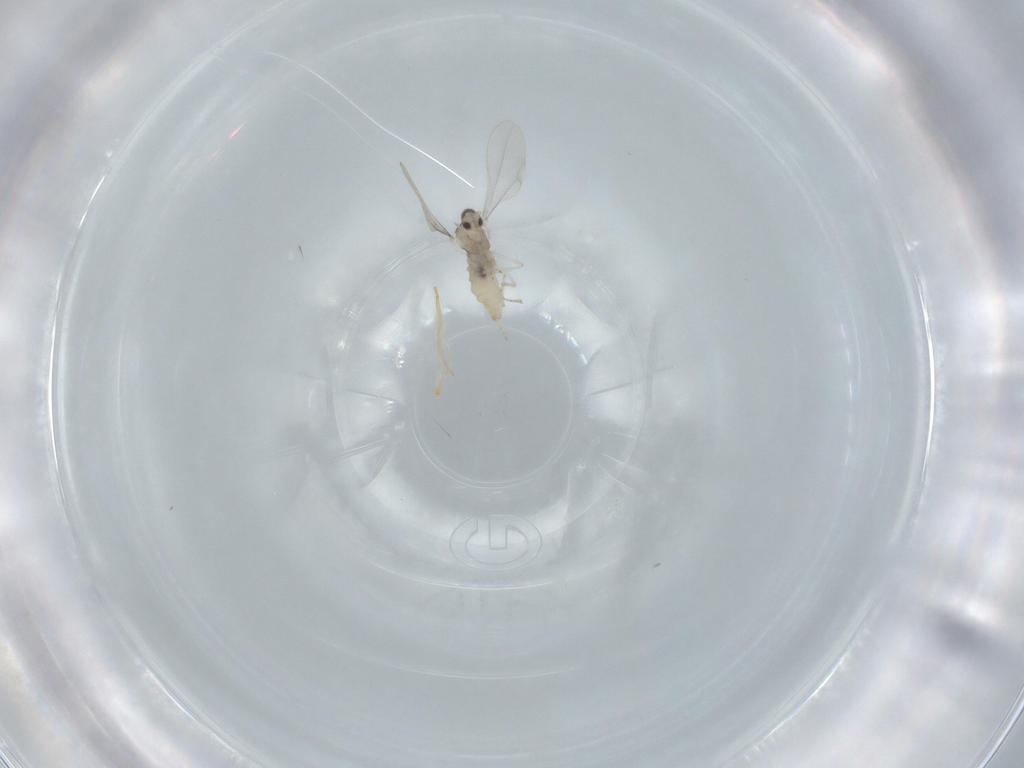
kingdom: Animalia
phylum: Arthropoda
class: Insecta
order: Diptera
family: Cecidomyiidae
